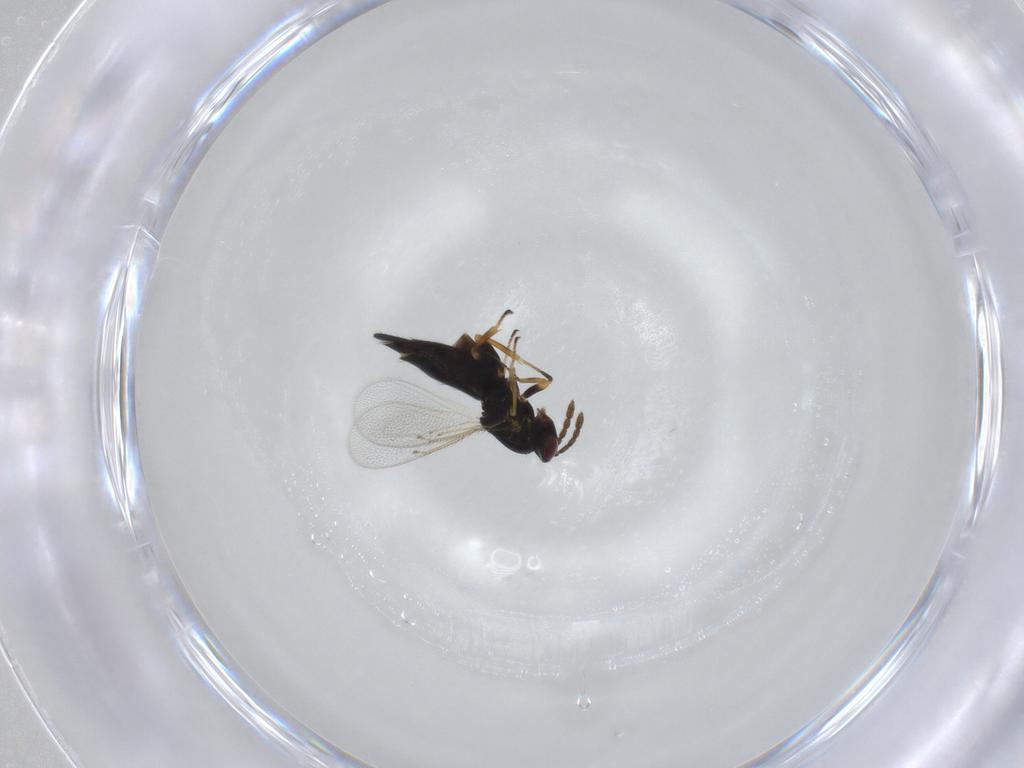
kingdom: Animalia
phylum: Arthropoda
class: Insecta
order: Hymenoptera
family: Eulophidae
